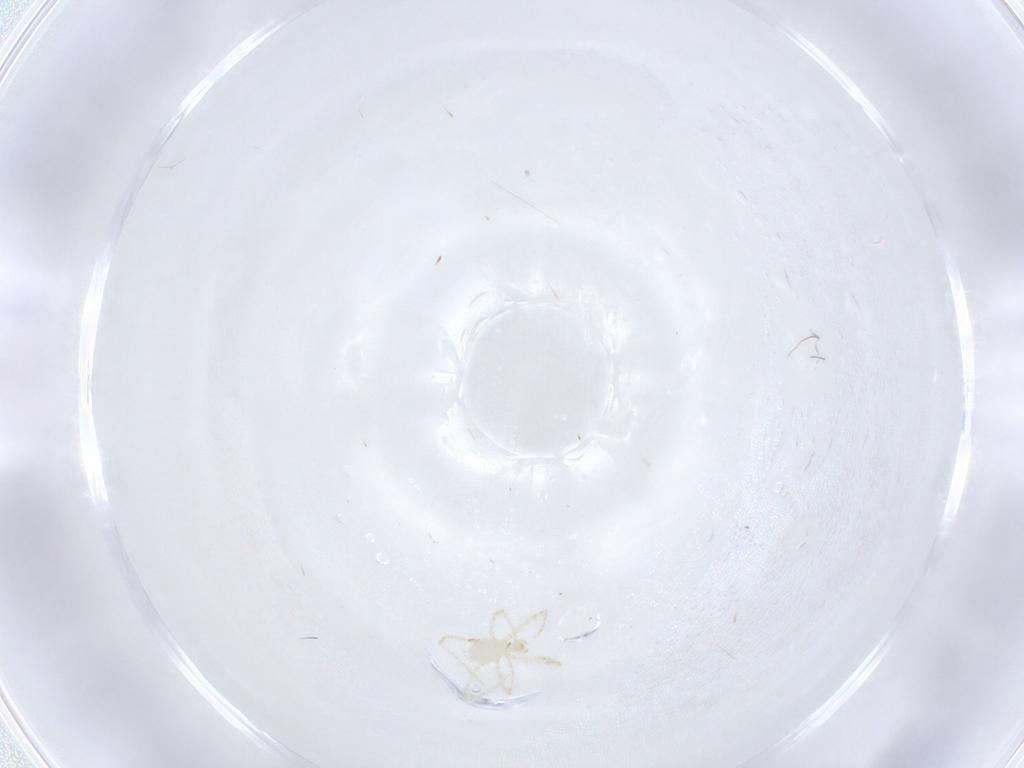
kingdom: Animalia
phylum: Arthropoda
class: Arachnida
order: Trombidiformes
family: Erythraeidae
